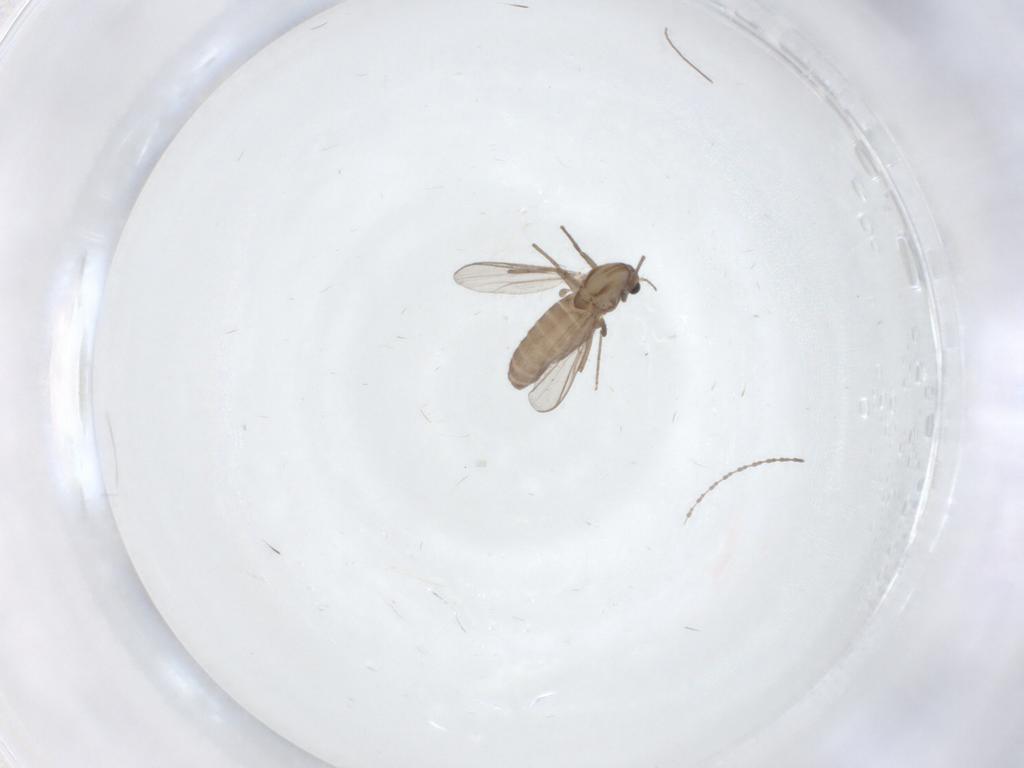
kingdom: Animalia
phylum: Arthropoda
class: Insecta
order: Diptera
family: Chironomidae
